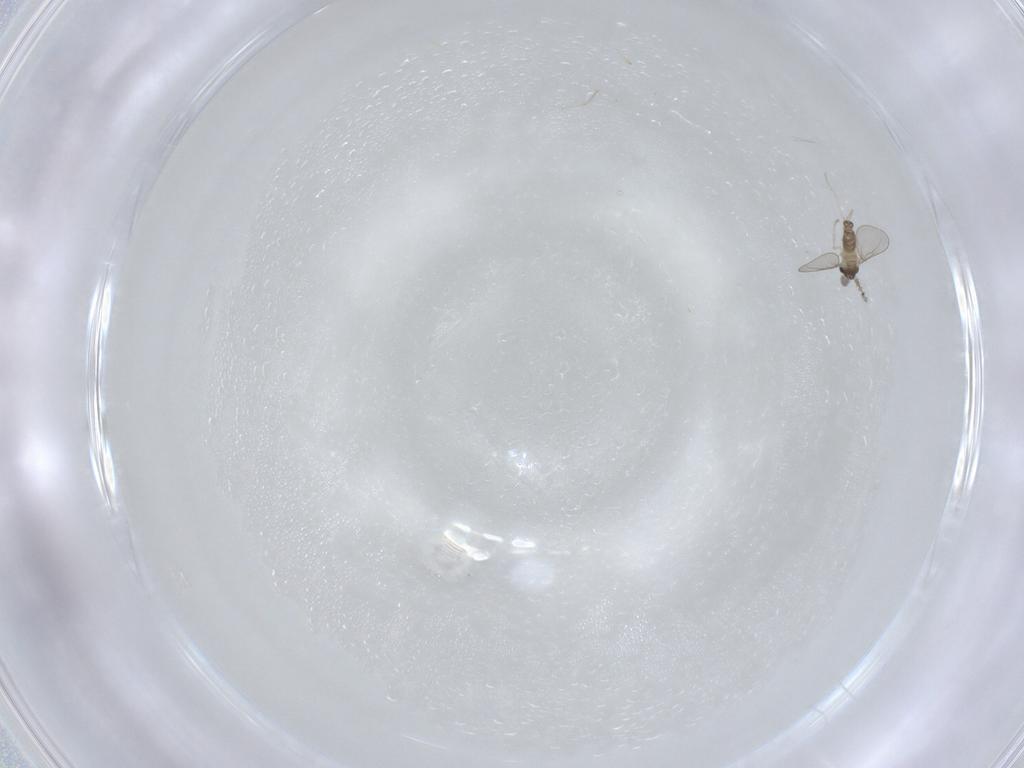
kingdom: Animalia
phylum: Arthropoda
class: Insecta
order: Diptera
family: Cecidomyiidae
